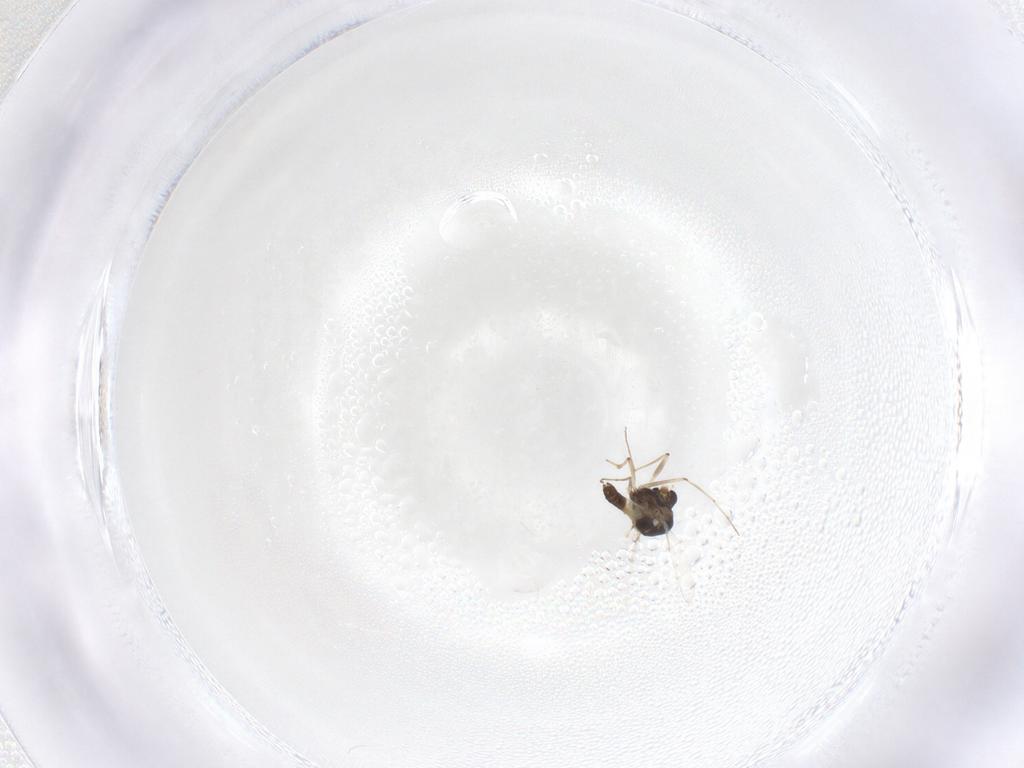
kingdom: Animalia
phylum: Arthropoda
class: Insecta
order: Diptera
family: Chironomidae
